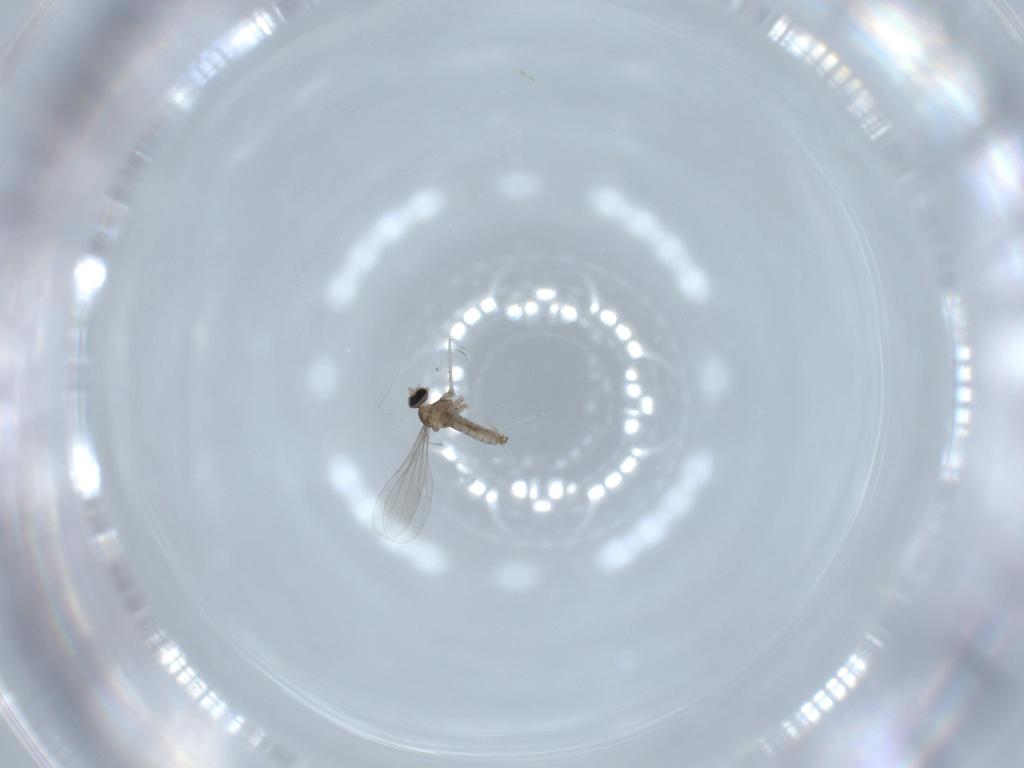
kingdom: Animalia
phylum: Arthropoda
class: Insecta
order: Diptera
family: Cecidomyiidae
